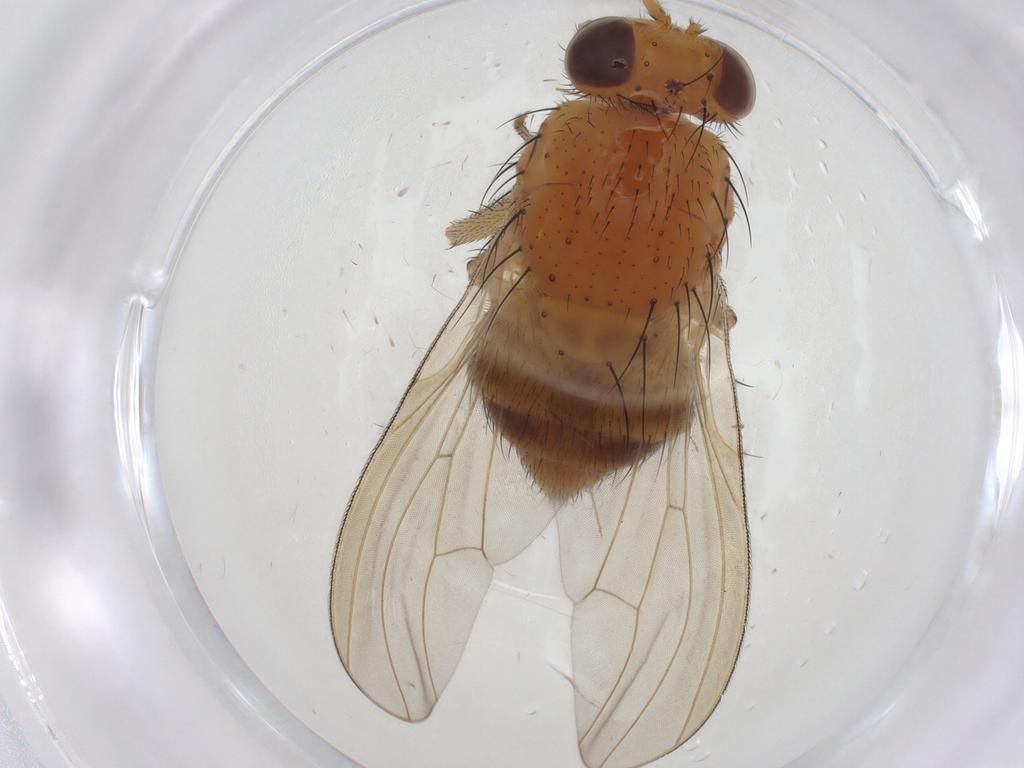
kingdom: Animalia
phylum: Arthropoda
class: Insecta
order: Diptera
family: Cecidomyiidae
